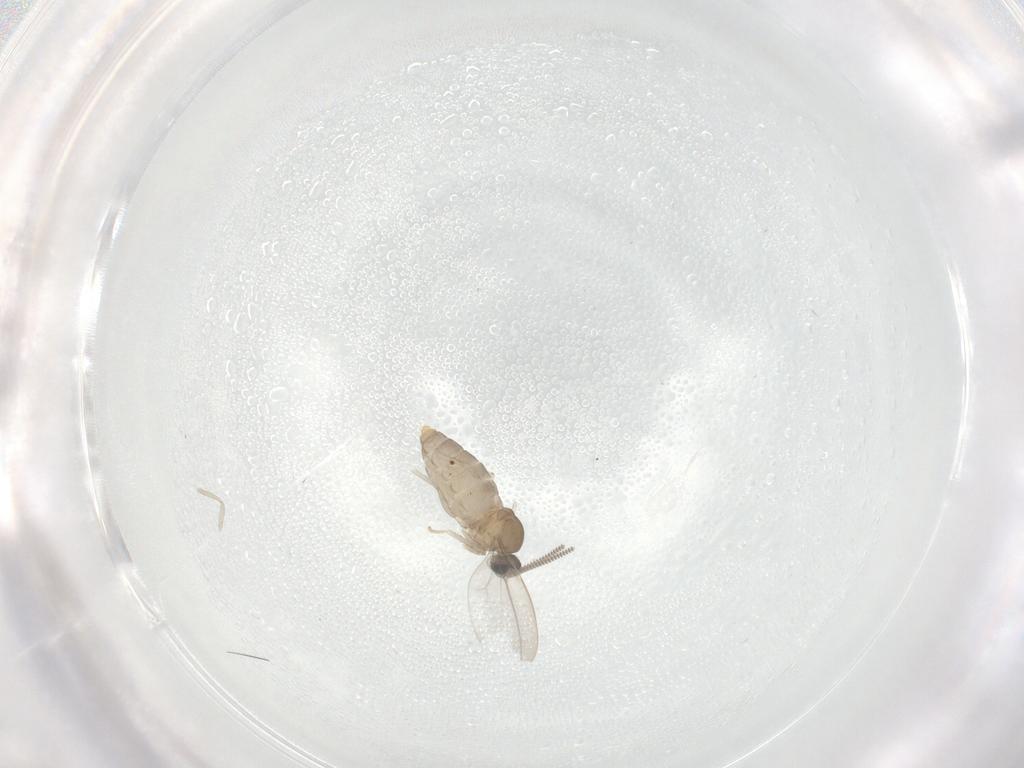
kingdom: Animalia
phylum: Arthropoda
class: Insecta
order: Diptera
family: Cecidomyiidae
